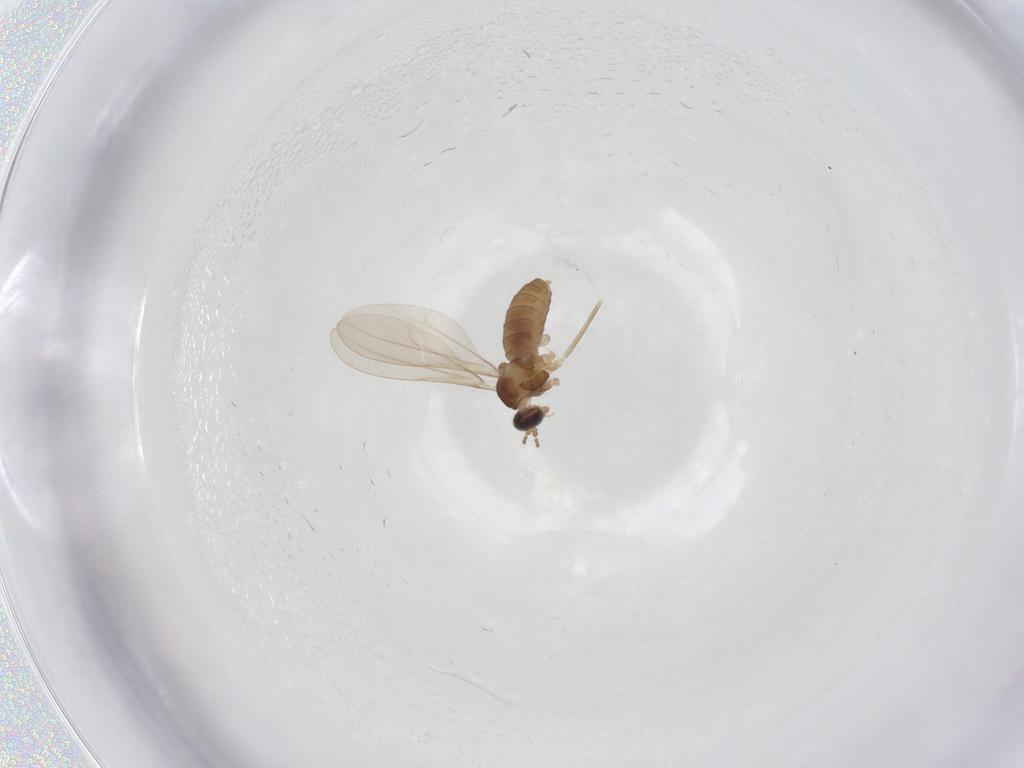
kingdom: Animalia
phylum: Arthropoda
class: Insecta
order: Diptera
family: Cecidomyiidae
